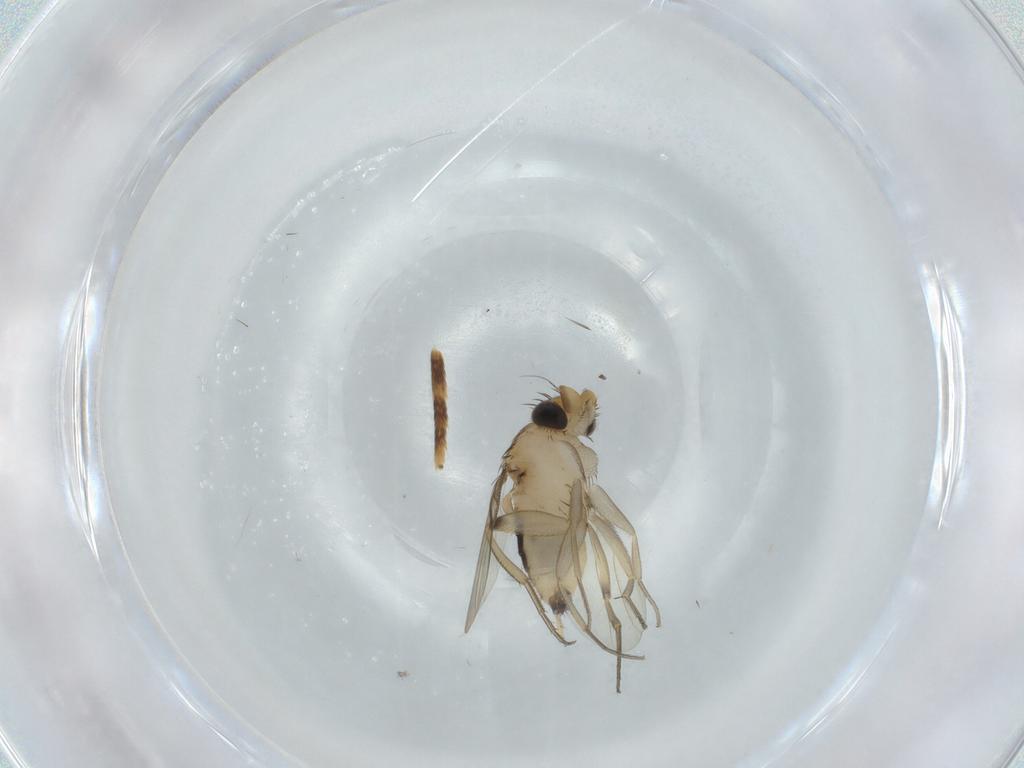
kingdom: Animalia
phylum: Arthropoda
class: Insecta
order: Diptera
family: Phoridae
